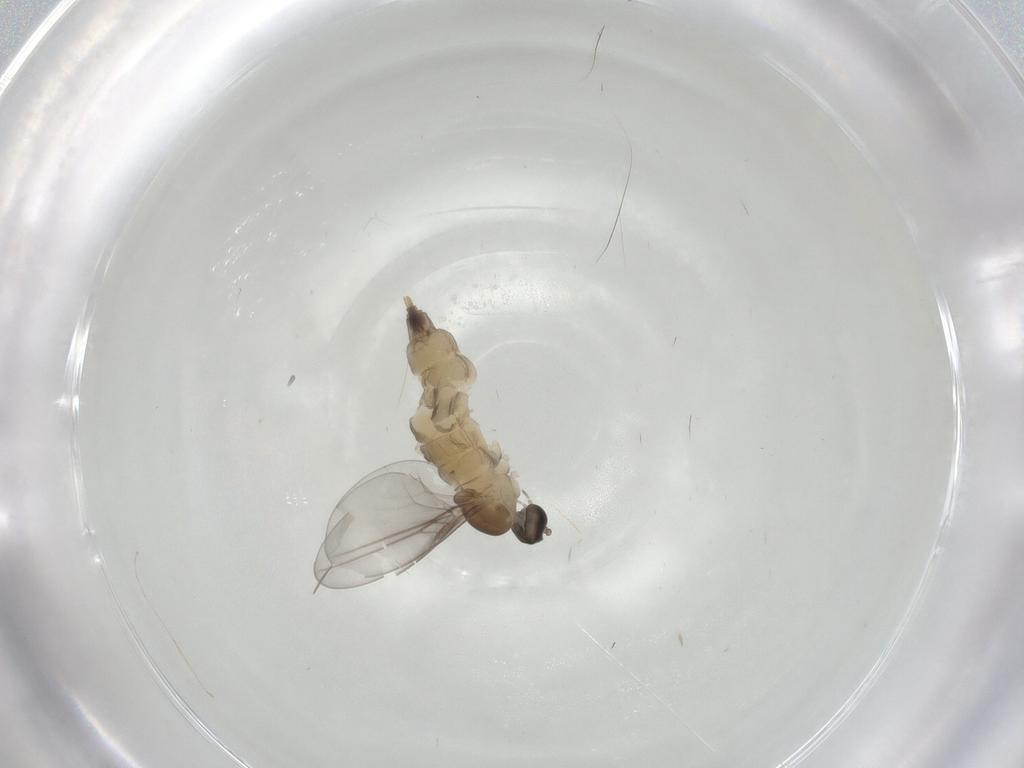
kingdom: Animalia
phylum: Arthropoda
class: Insecta
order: Diptera
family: Cecidomyiidae
